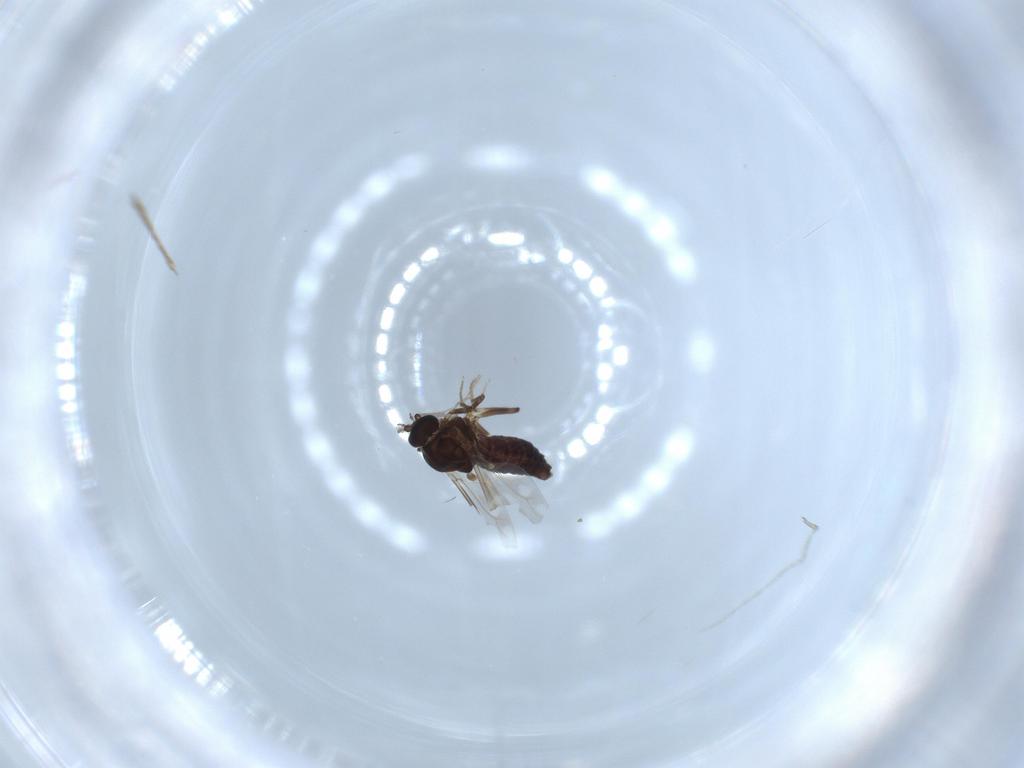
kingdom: Animalia
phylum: Arthropoda
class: Insecta
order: Diptera
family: Ceratopogonidae
